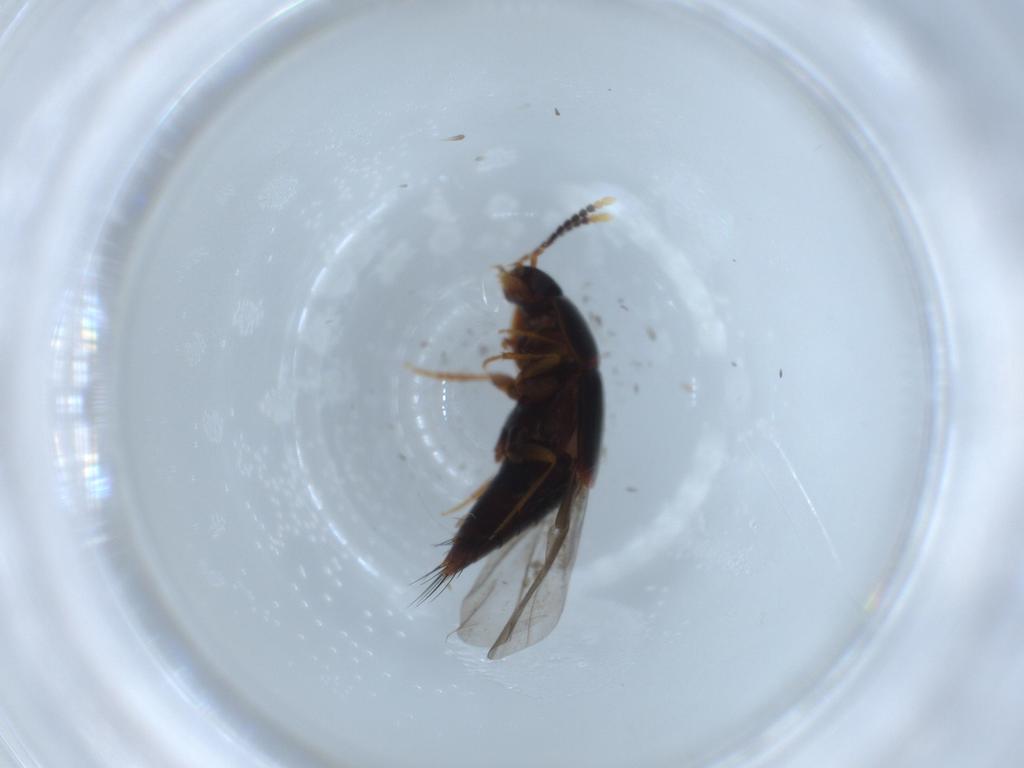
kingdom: Animalia
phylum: Arthropoda
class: Insecta
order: Coleoptera
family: Staphylinidae
